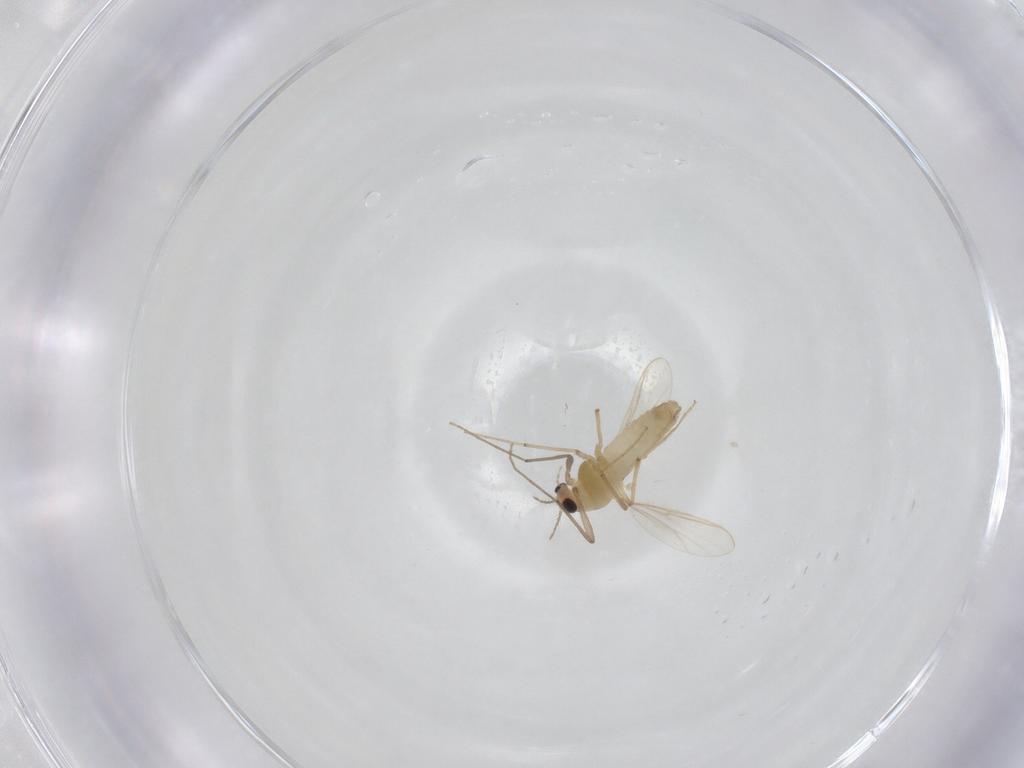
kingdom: Animalia
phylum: Arthropoda
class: Insecta
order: Diptera
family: Chironomidae
